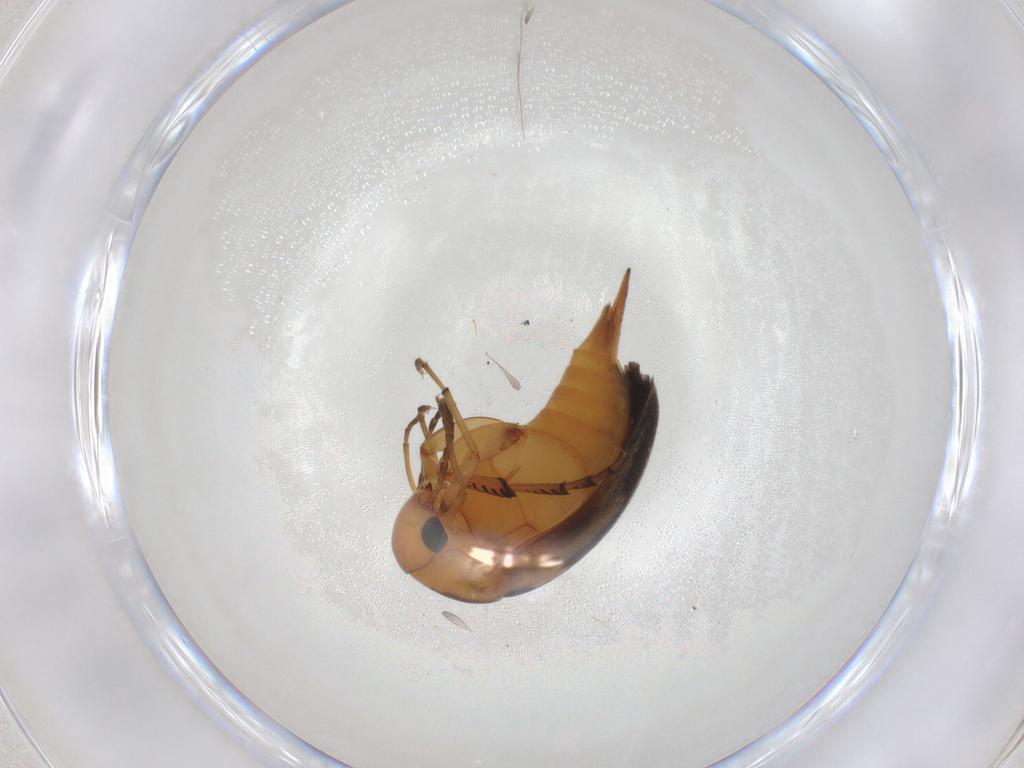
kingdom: Animalia
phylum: Arthropoda
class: Insecta
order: Coleoptera
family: Mordellidae
